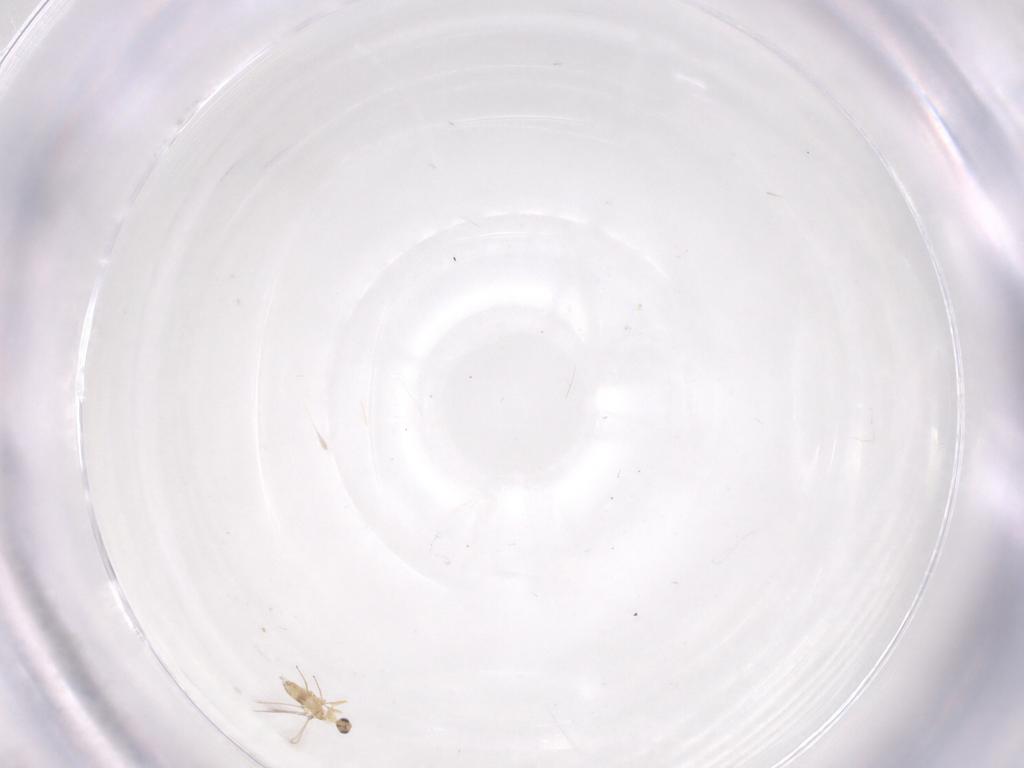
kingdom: Animalia
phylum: Arthropoda
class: Insecta
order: Hymenoptera
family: Mymaridae
